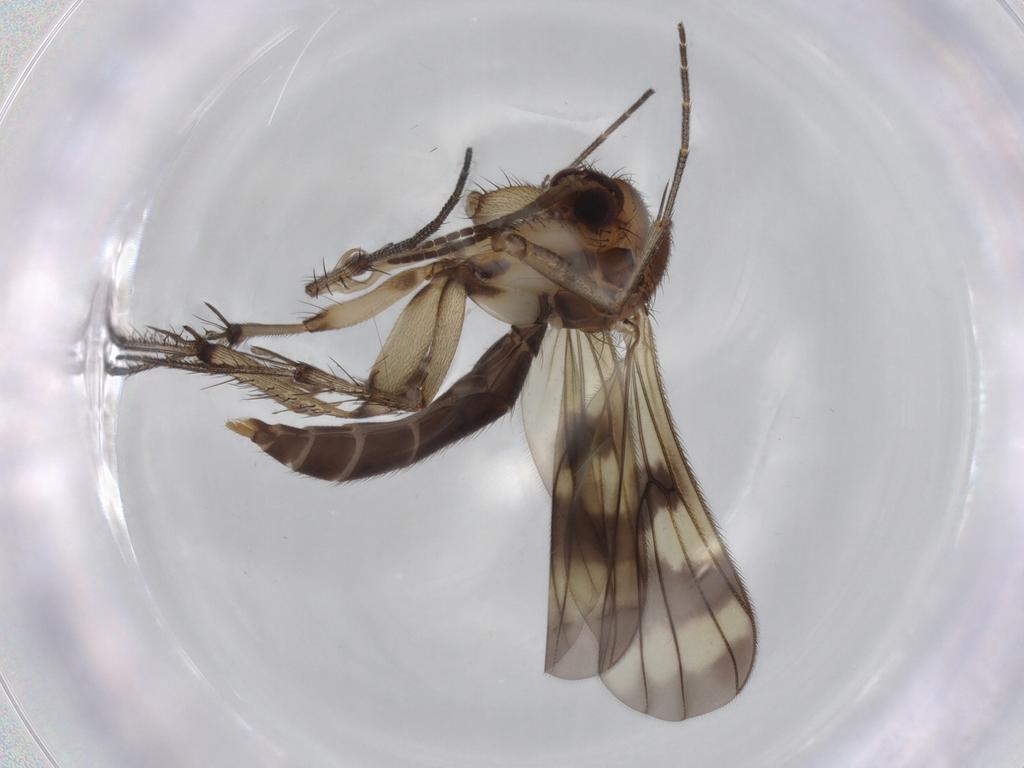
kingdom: Animalia
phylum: Arthropoda
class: Insecta
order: Diptera
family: Sciaridae
